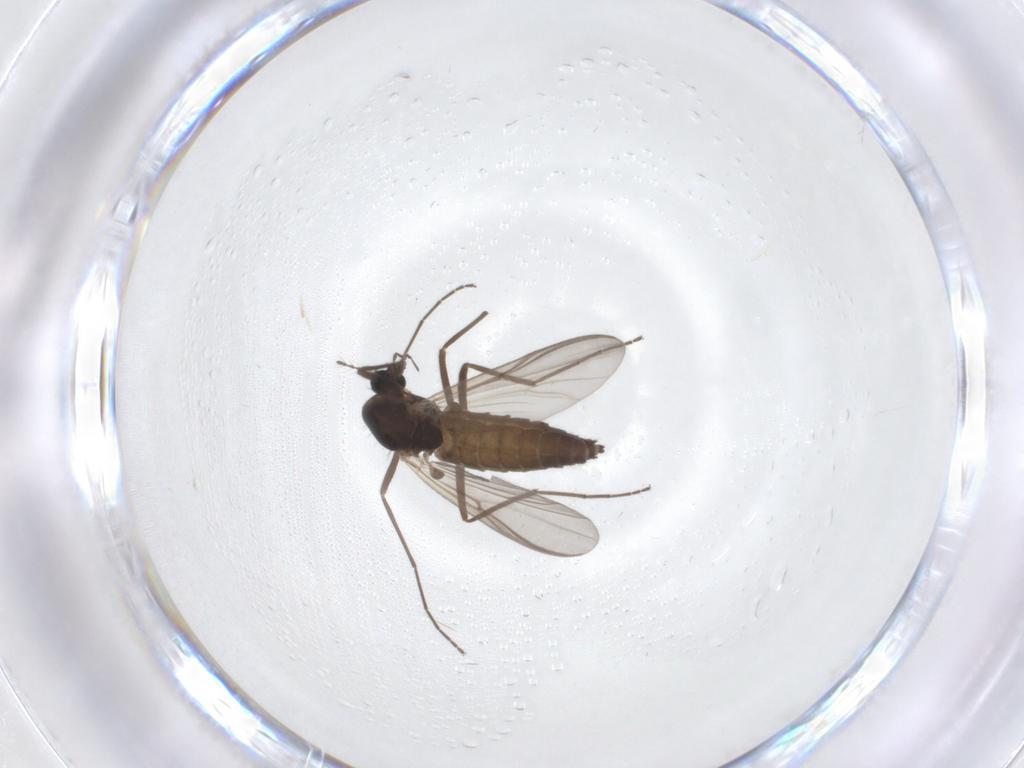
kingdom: Animalia
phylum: Arthropoda
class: Insecta
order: Diptera
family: Chironomidae
